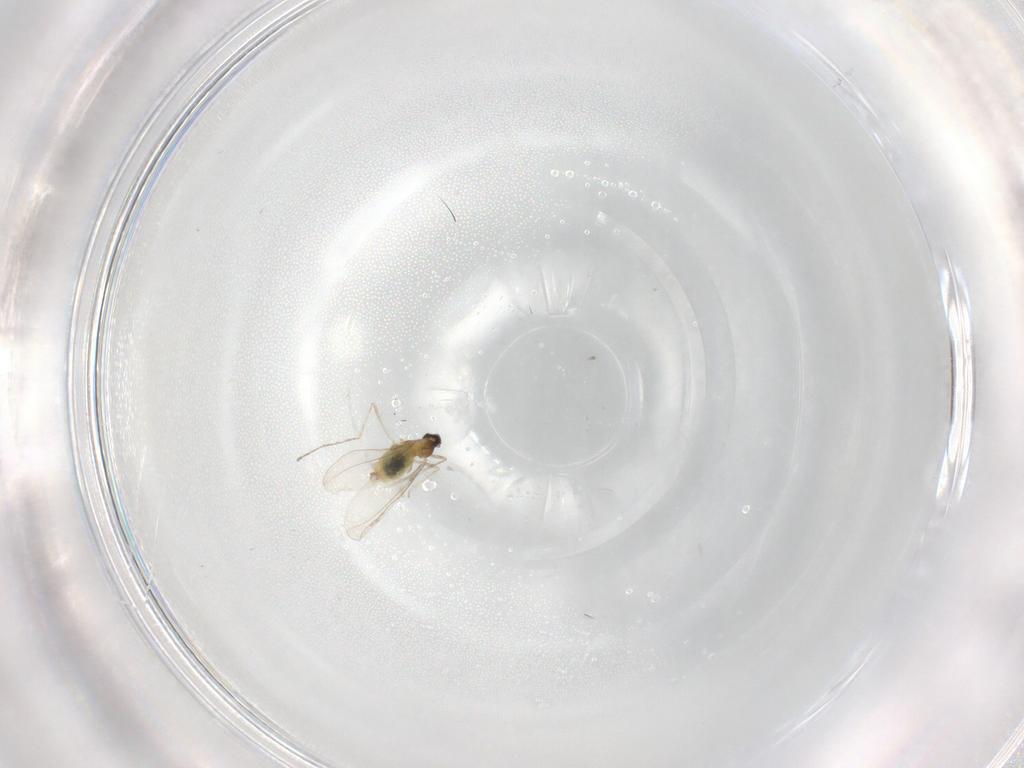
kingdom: Animalia
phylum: Arthropoda
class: Insecta
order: Diptera
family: Cecidomyiidae
